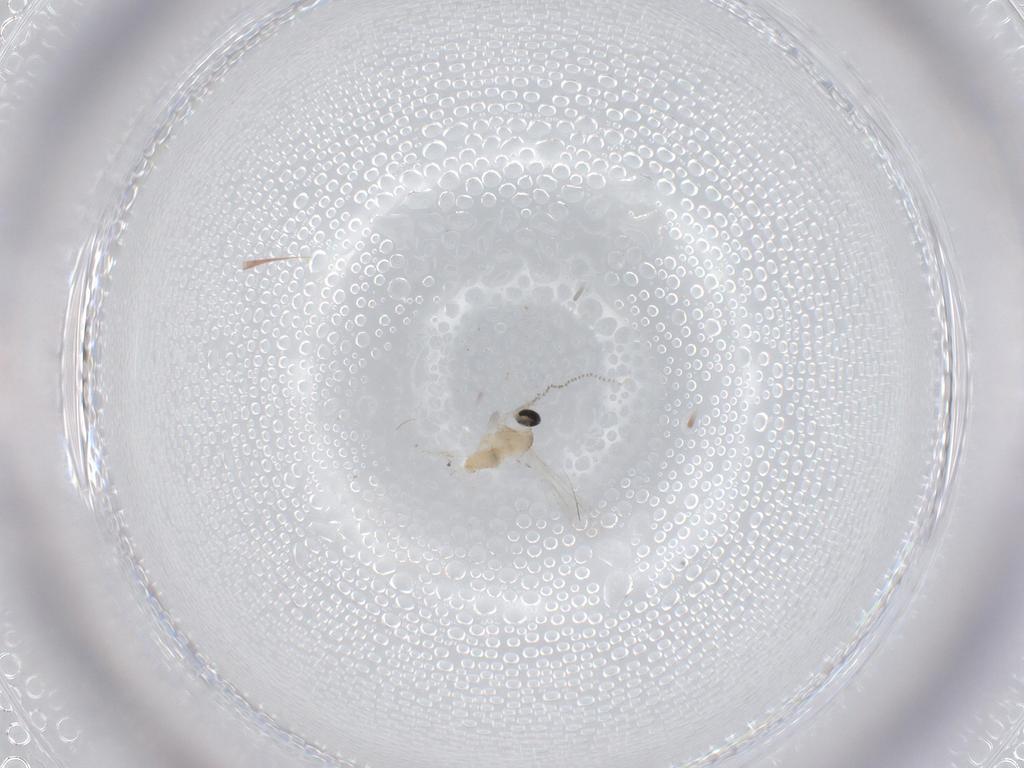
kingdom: Animalia
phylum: Arthropoda
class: Insecta
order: Diptera
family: Cecidomyiidae
